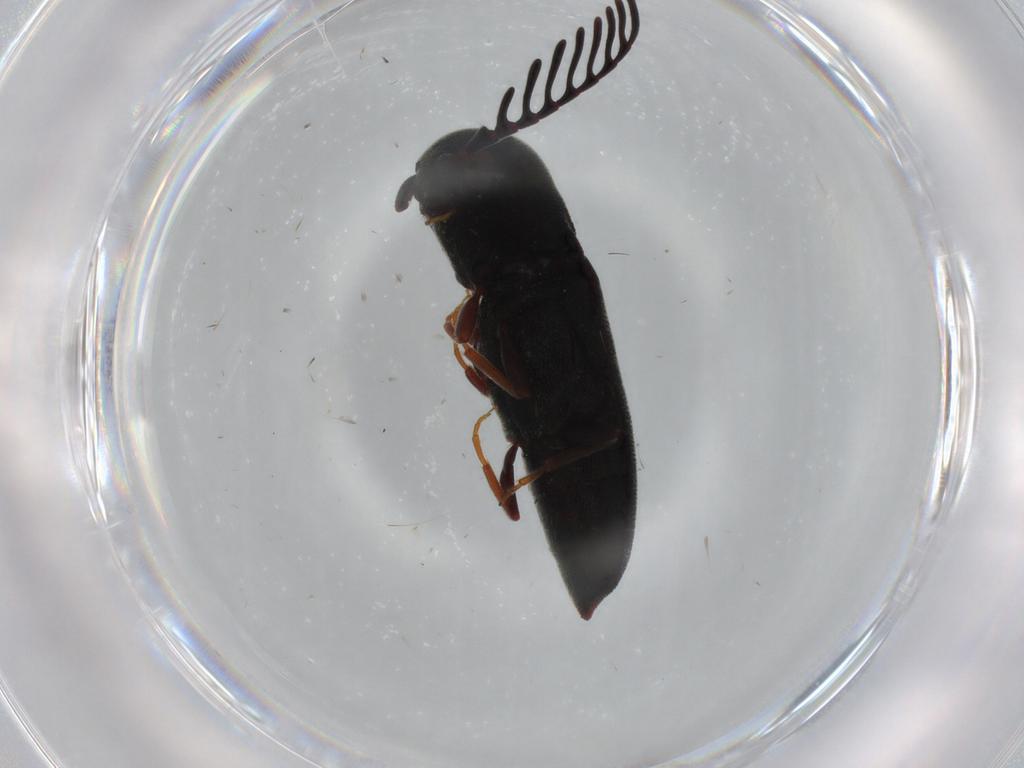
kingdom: Animalia
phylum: Arthropoda
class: Insecta
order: Coleoptera
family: Eucnemidae
